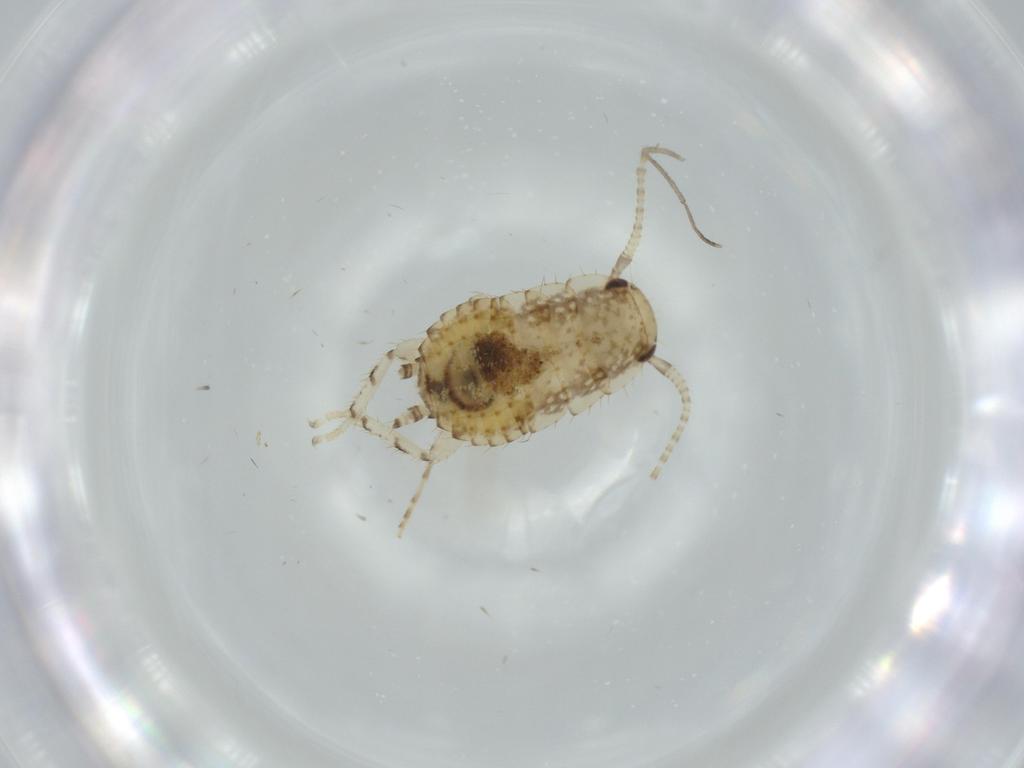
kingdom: Animalia
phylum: Arthropoda
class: Insecta
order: Blattodea
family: Ectobiidae
